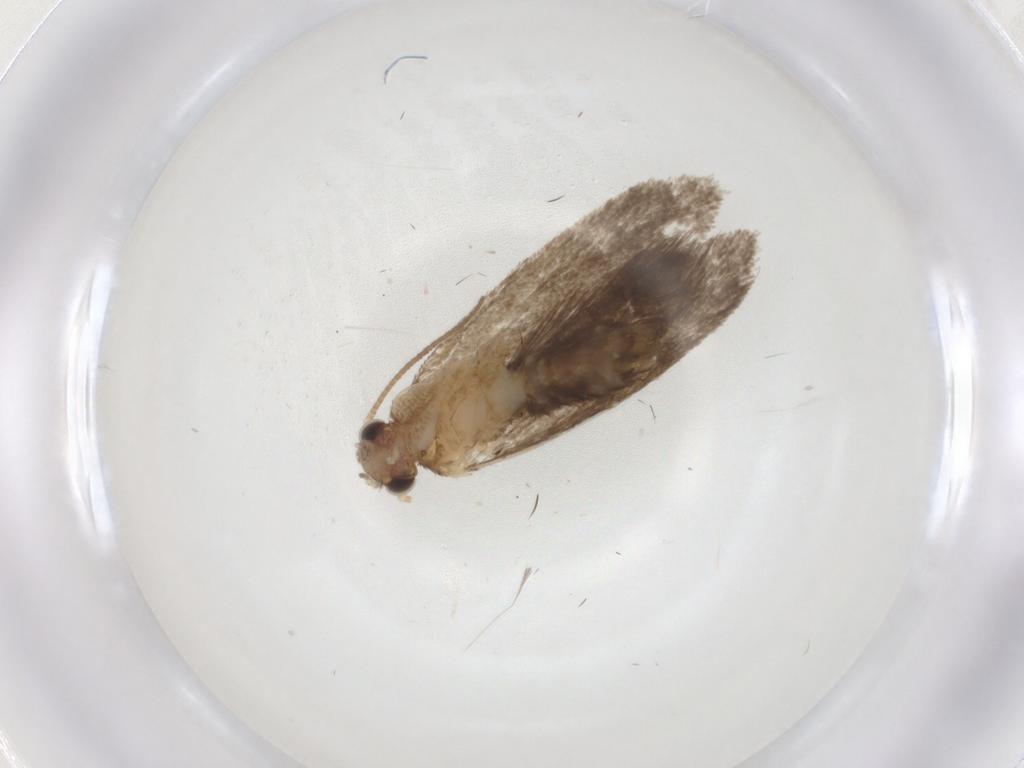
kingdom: Animalia
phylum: Arthropoda
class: Insecta
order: Lepidoptera
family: Dryadaulidae
